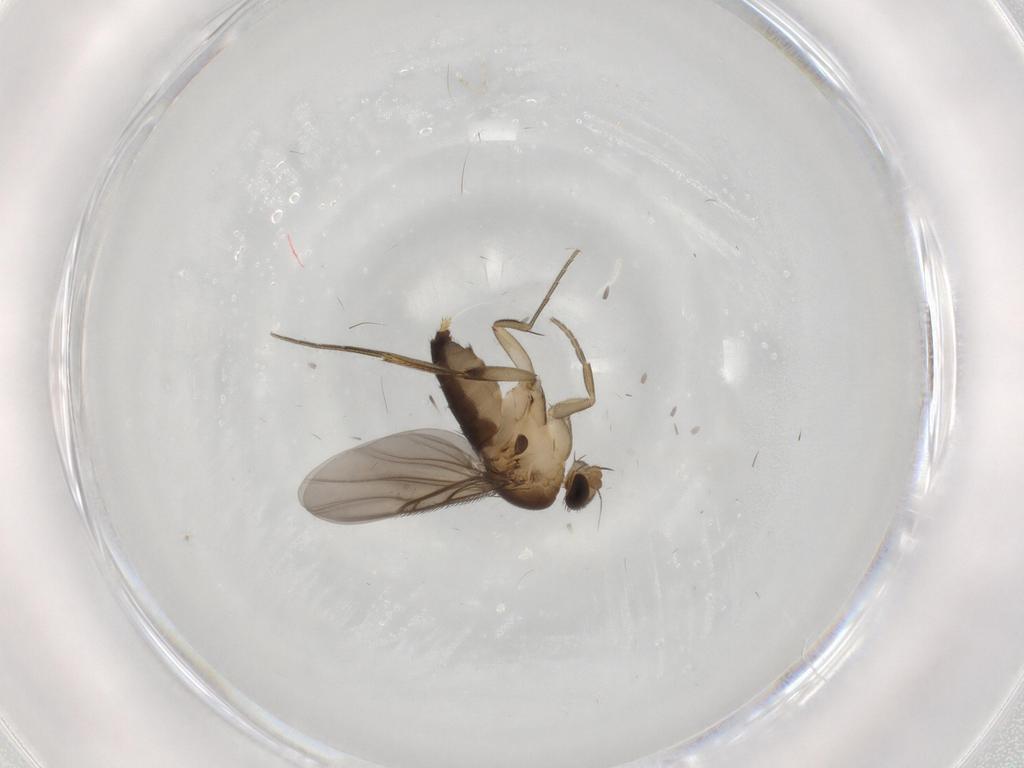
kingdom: Animalia
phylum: Arthropoda
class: Insecta
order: Diptera
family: Phoridae
